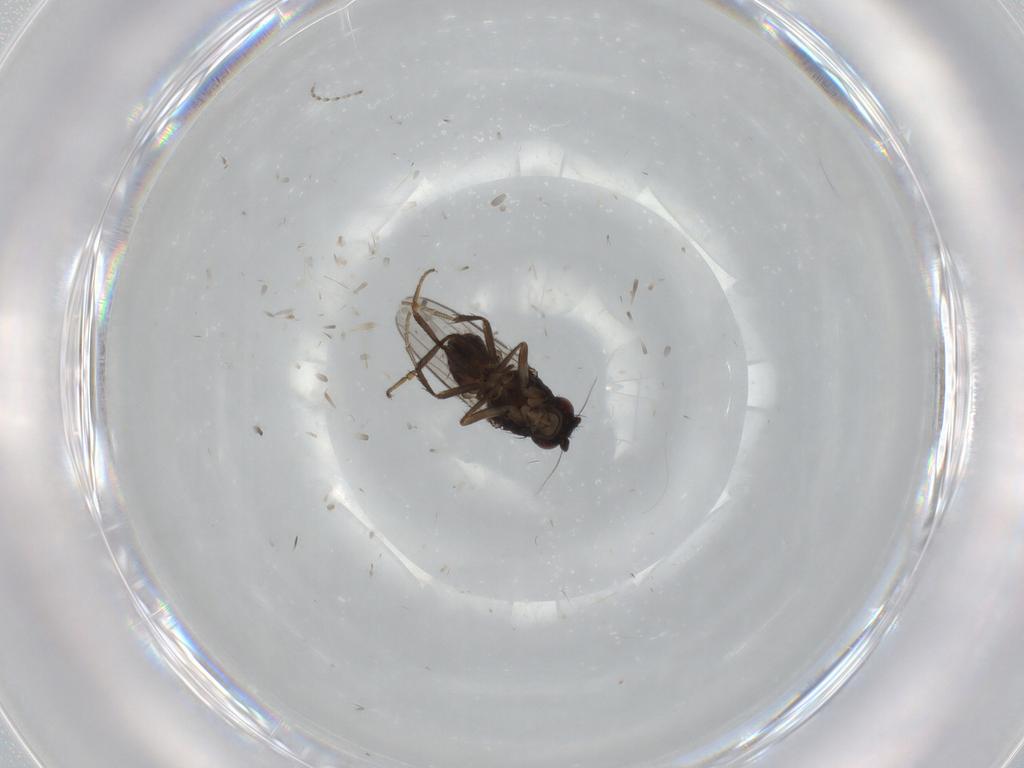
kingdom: Animalia
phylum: Arthropoda
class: Insecta
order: Diptera
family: Sphaeroceridae
